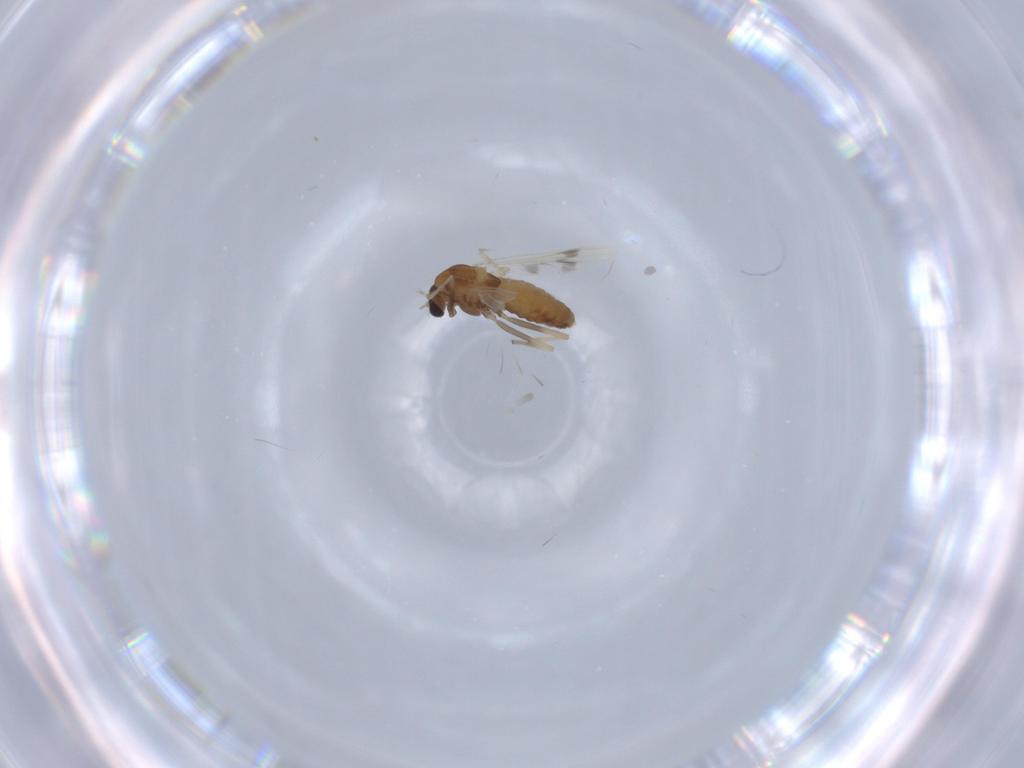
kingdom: Animalia
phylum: Arthropoda
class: Insecta
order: Diptera
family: Chironomidae
